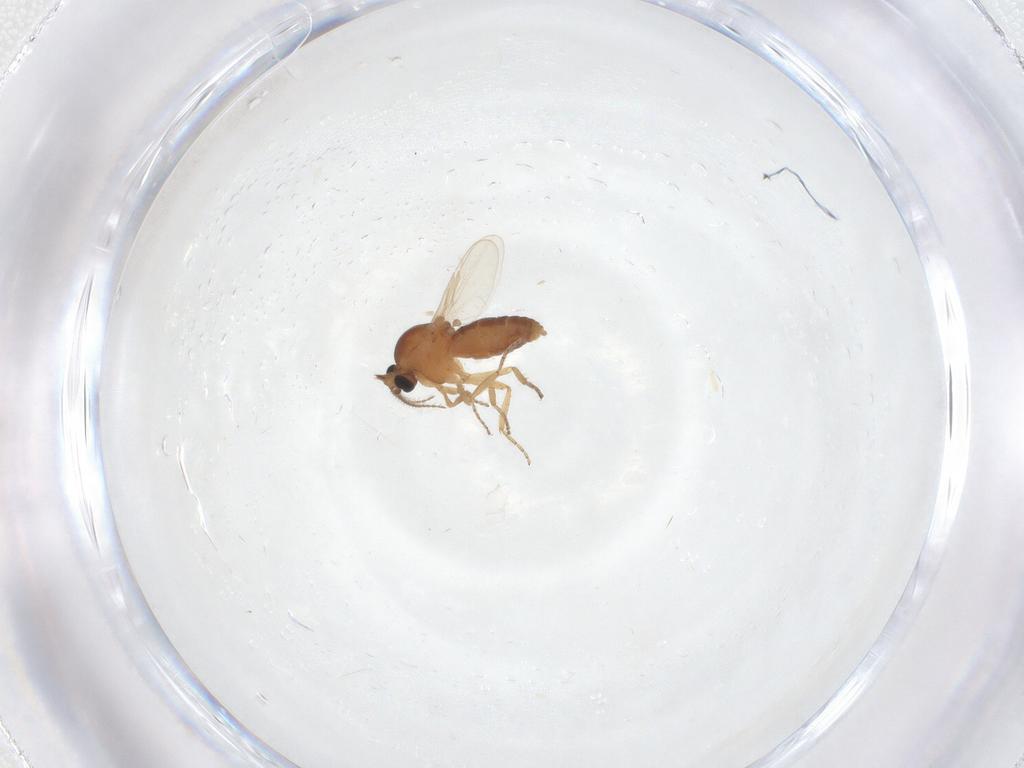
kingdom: Animalia
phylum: Arthropoda
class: Insecta
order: Diptera
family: Ceratopogonidae
